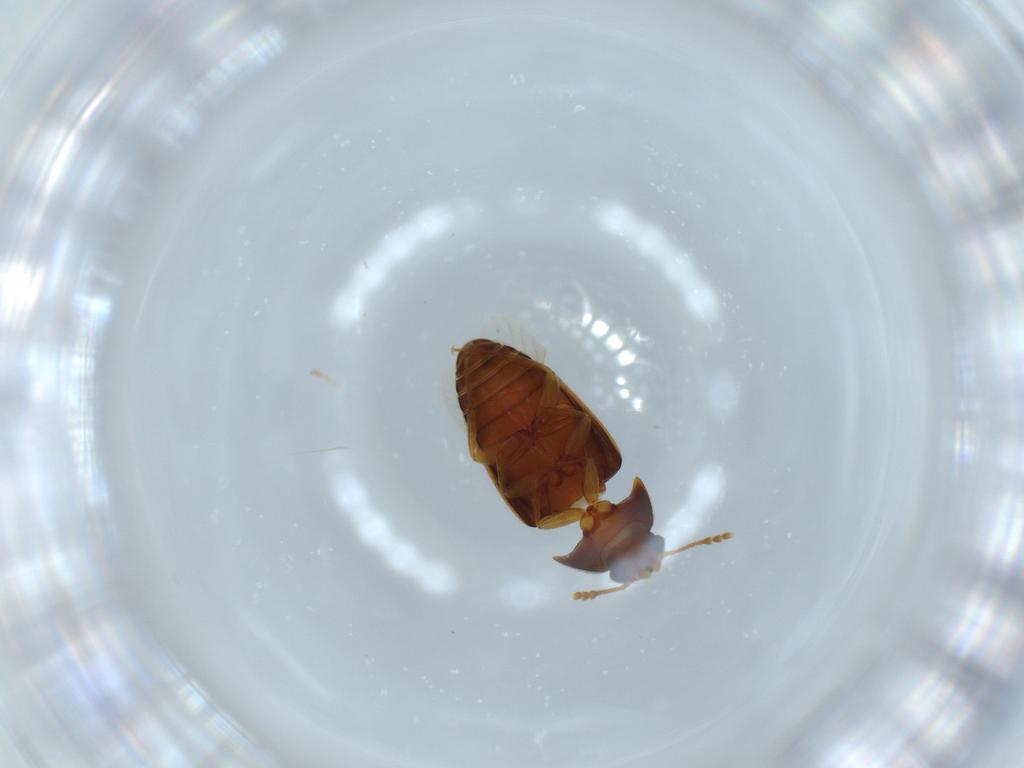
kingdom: Animalia
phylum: Arthropoda
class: Insecta
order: Coleoptera
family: Mycetophagidae
